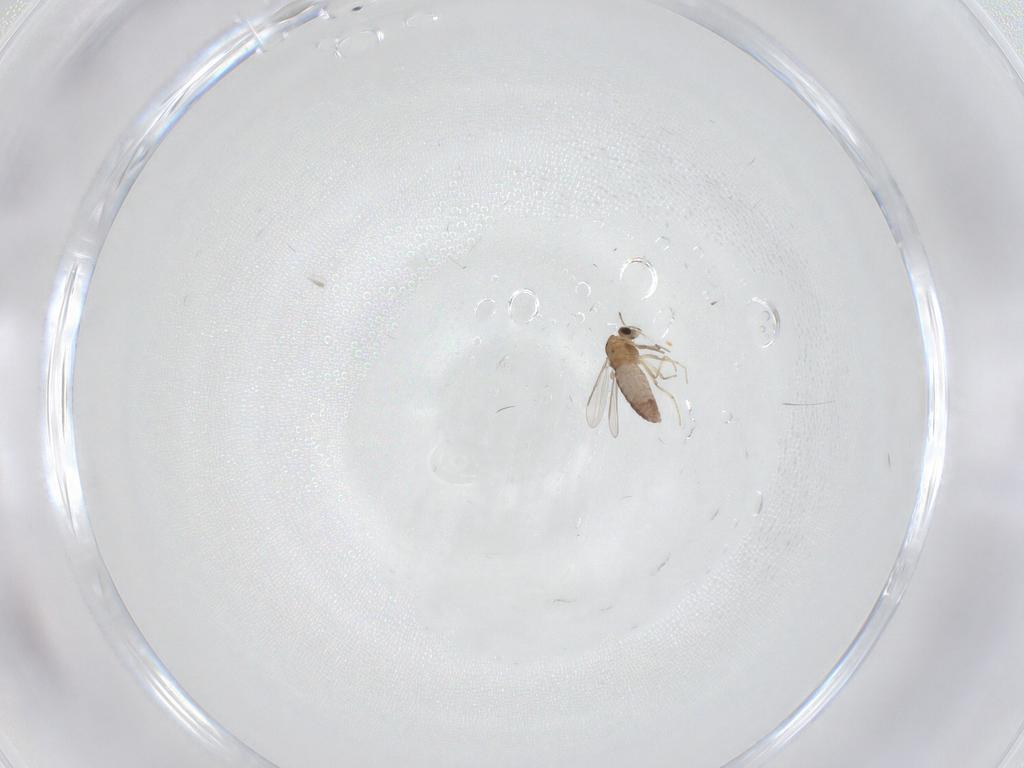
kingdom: Animalia
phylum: Arthropoda
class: Insecta
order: Diptera
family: Chironomidae
